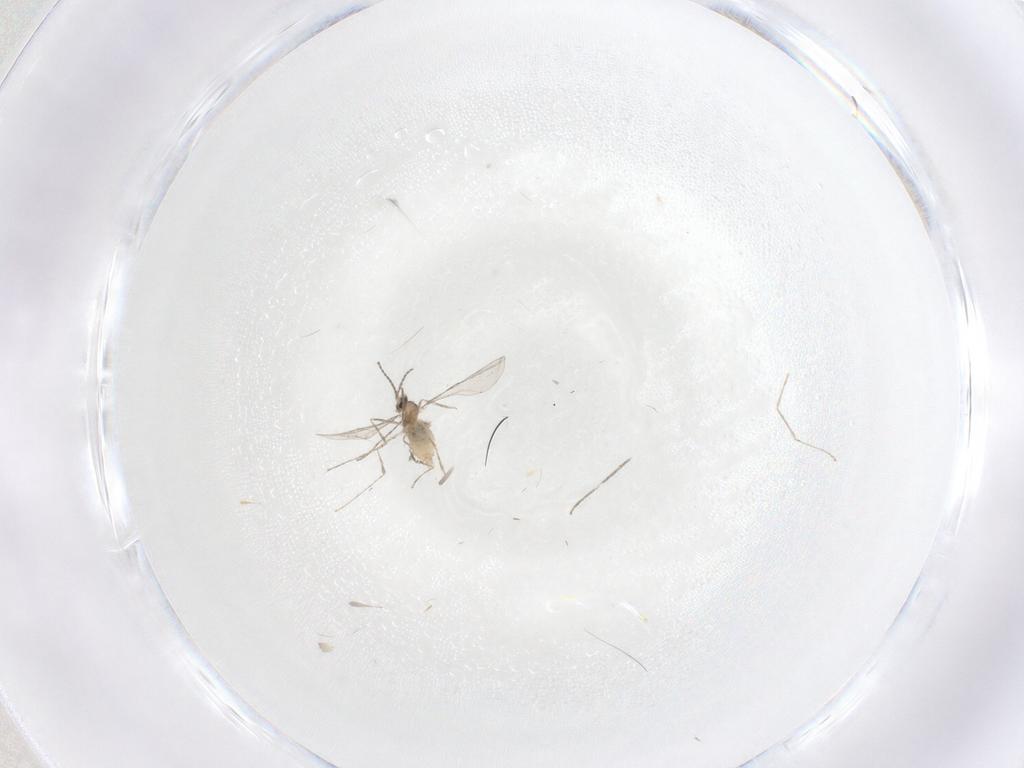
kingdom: Animalia
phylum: Arthropoda
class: Insecta
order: Diptera
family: Cecidomyiidae
